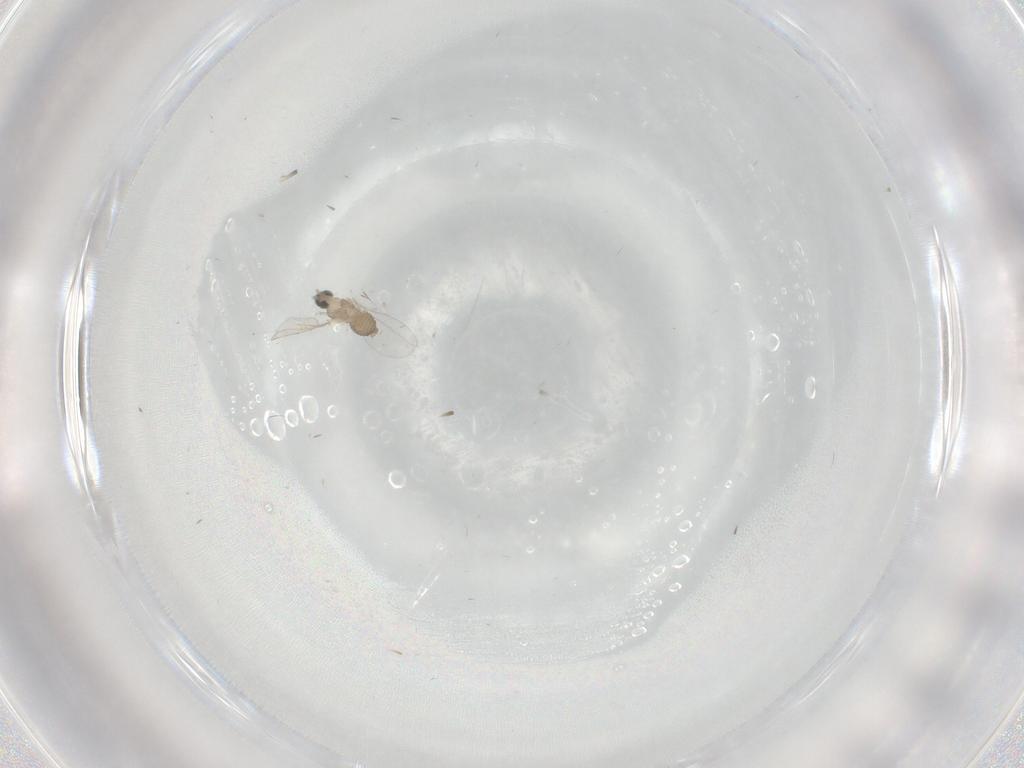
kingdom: Animalia
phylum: Arthropoda
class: Insecta
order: Diptera
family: Cecidomyiidae
